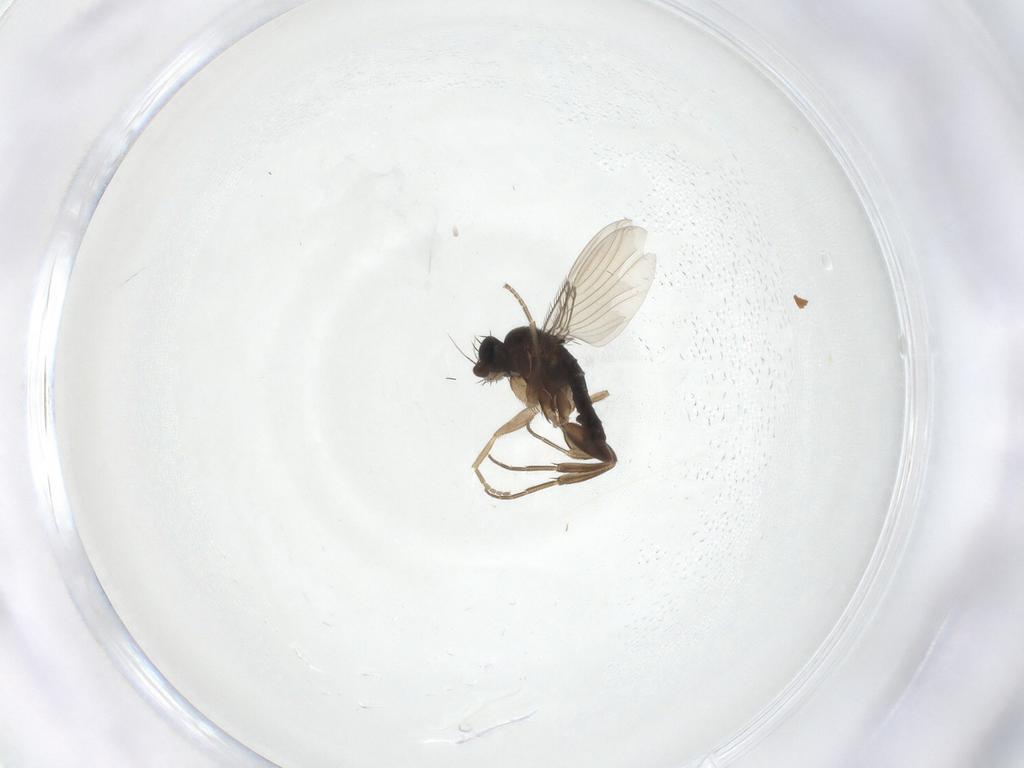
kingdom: Animalia
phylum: Arthropoda
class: Insecta
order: Diptera
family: Phoridae
